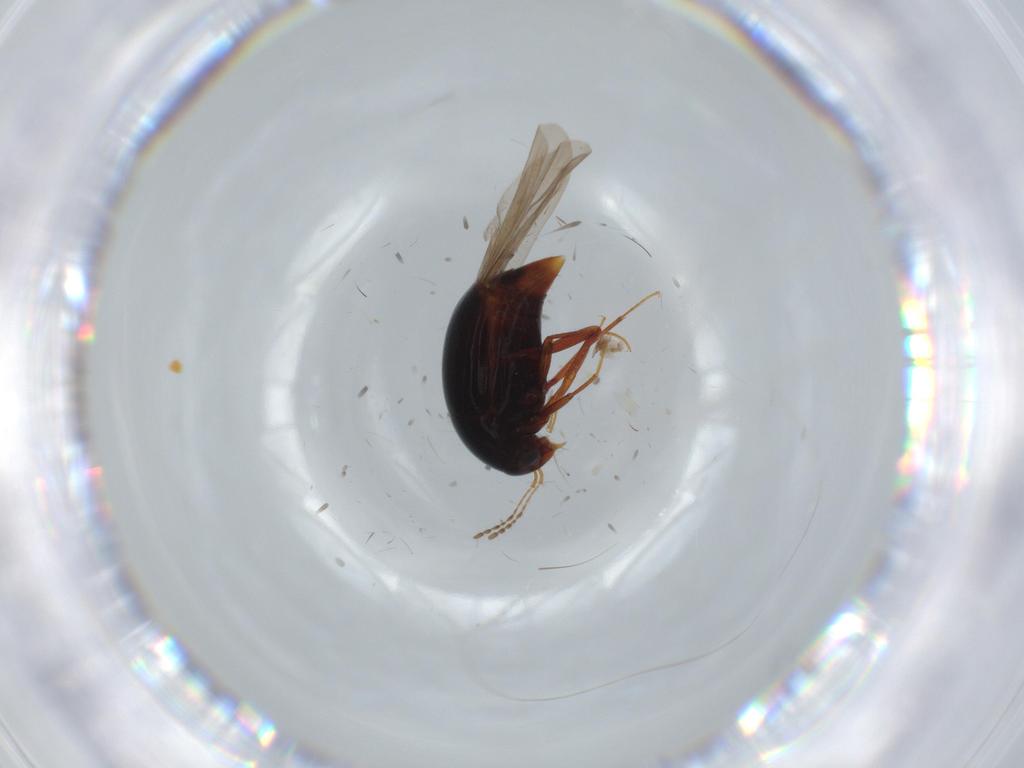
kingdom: Animalia
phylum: Arthropoda
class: Insecta
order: Coleoptera
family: Staphylinidae
